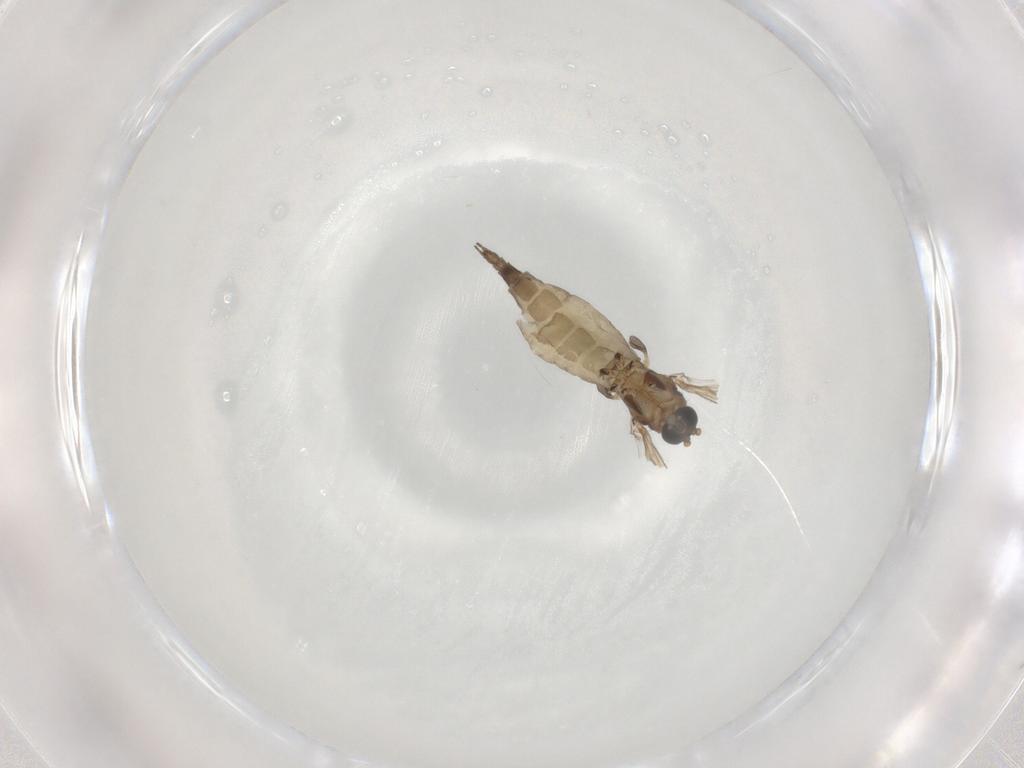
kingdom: Animalia
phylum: Arthropoda
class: Insecta
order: Diptera
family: Sciaridae
